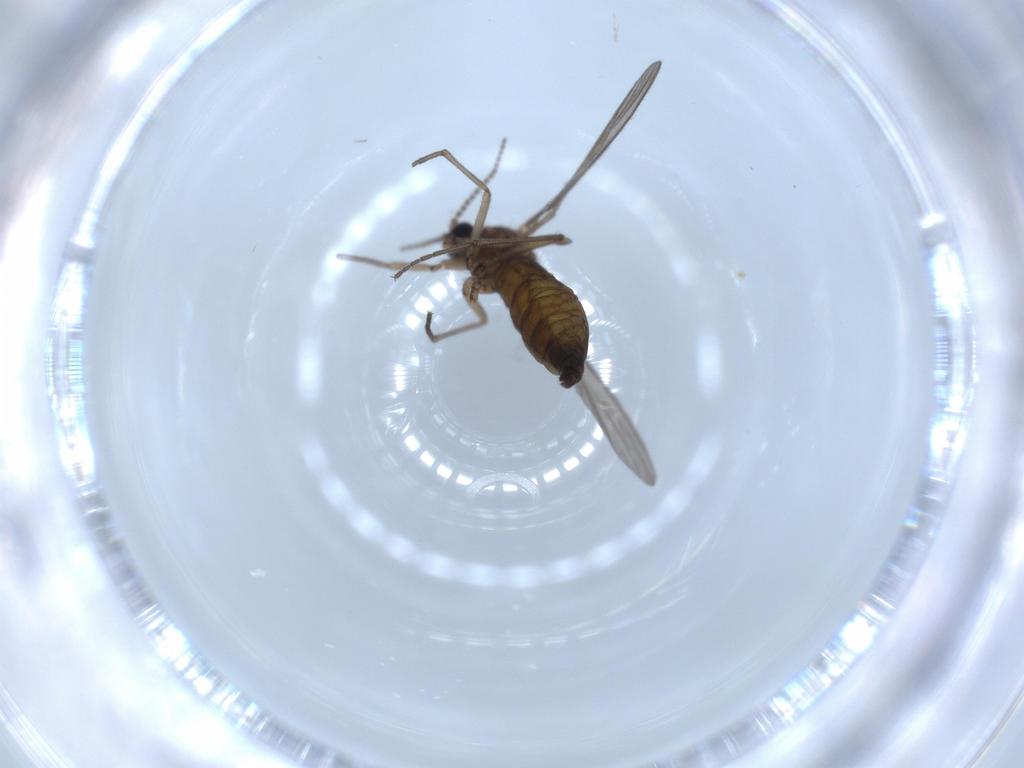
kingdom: Animalia
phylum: Arthropoda
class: Insecta
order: Diptera
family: Sciaridae
